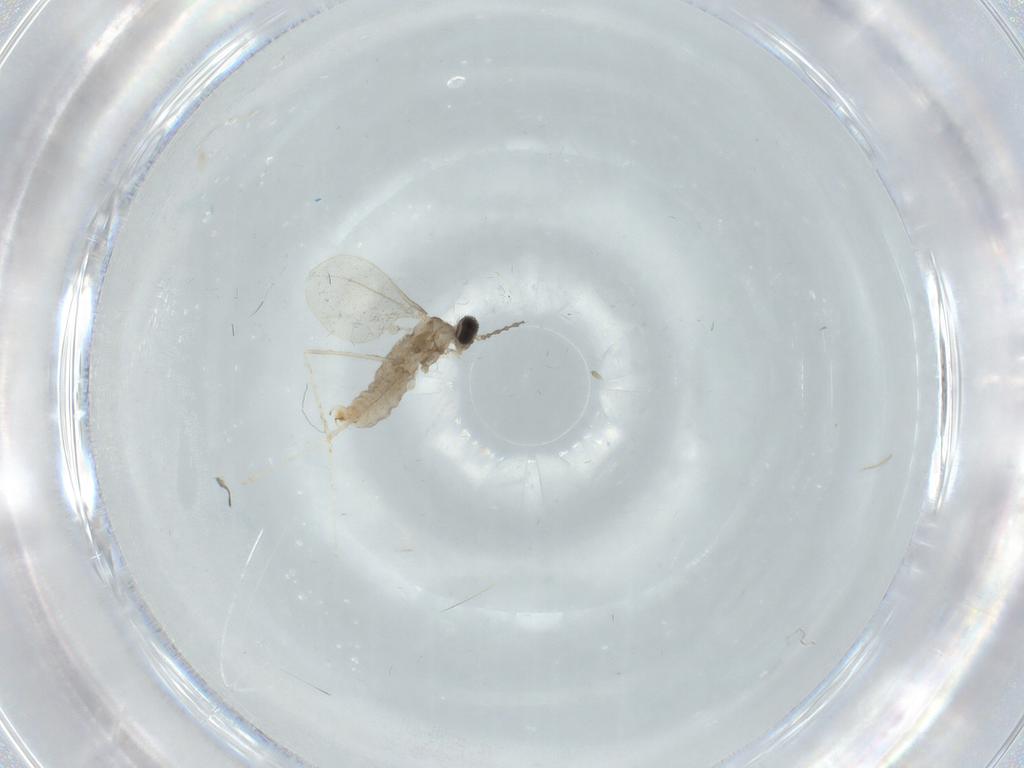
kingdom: Animalia
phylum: Arthropoda
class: Insecta
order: Diptera
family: Cecidomyiidae
